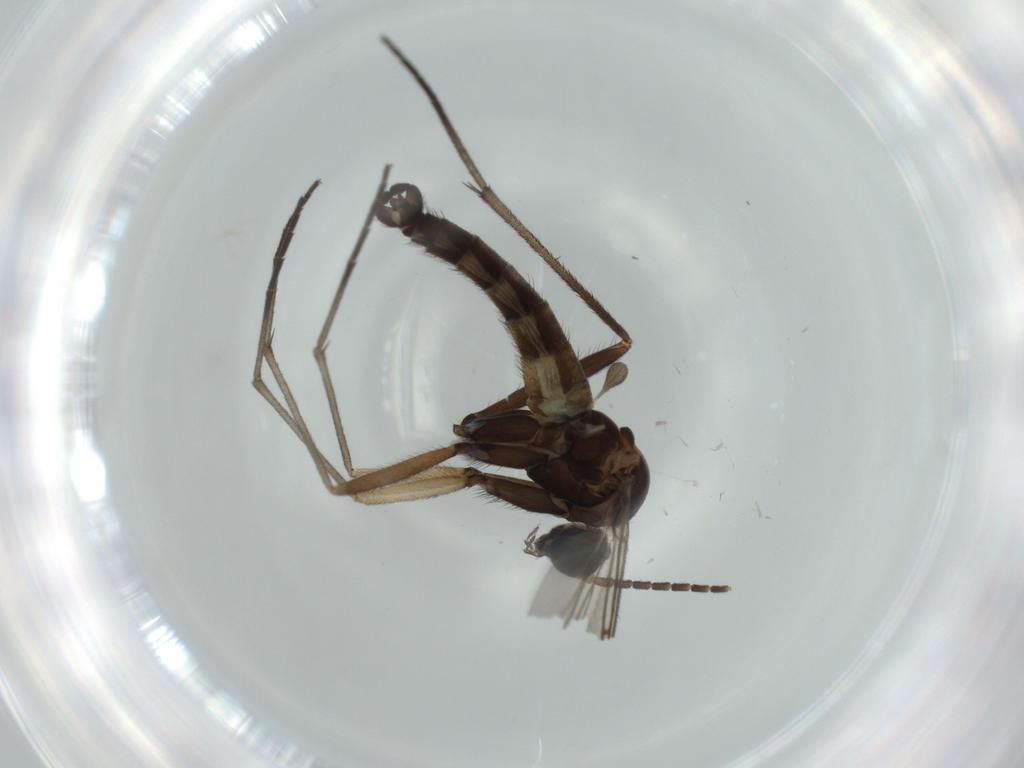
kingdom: Animalia
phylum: Arthropoda
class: Insecta
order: Diptera
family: Sciaridae
